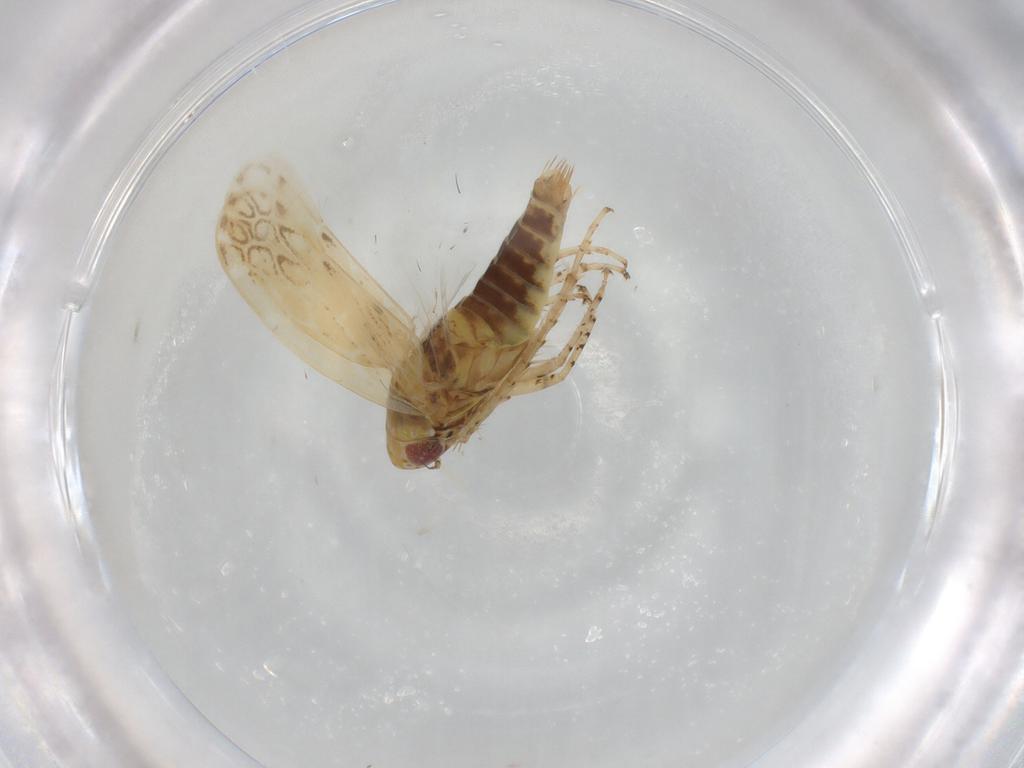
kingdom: Animalia
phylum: Arthropoda
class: Insecta
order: Hemiptera
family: Cicadellidae
